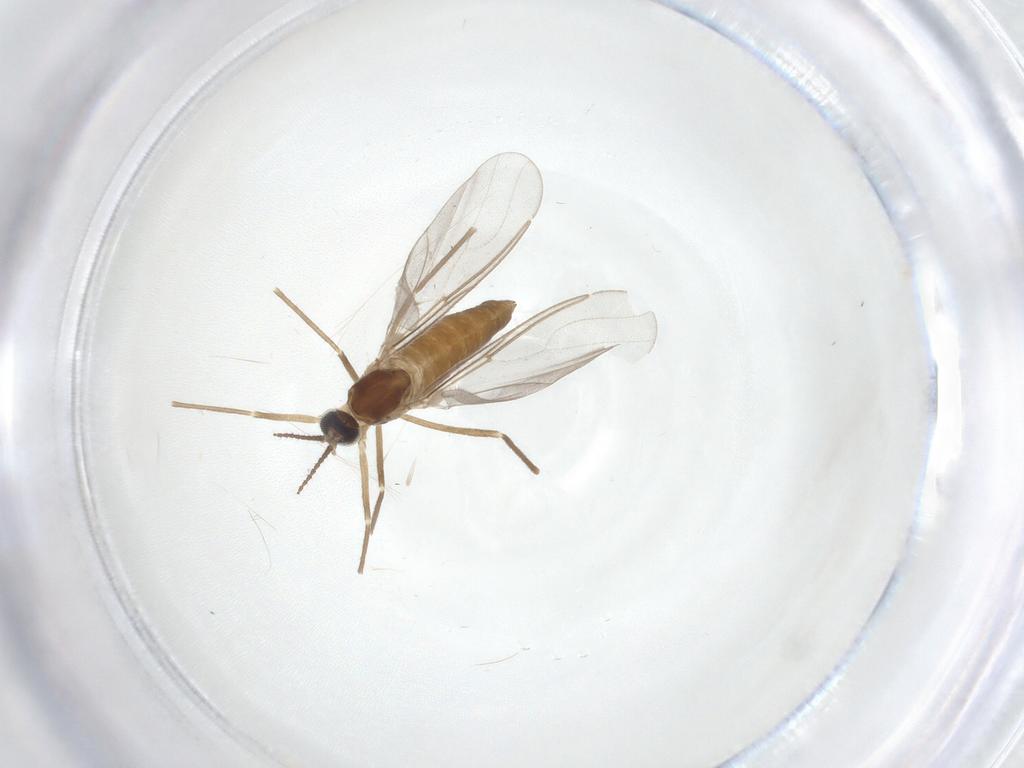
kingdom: Animalia
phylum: Arthropoda
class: Insecta
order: Diptera
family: Cecidomyiidae
